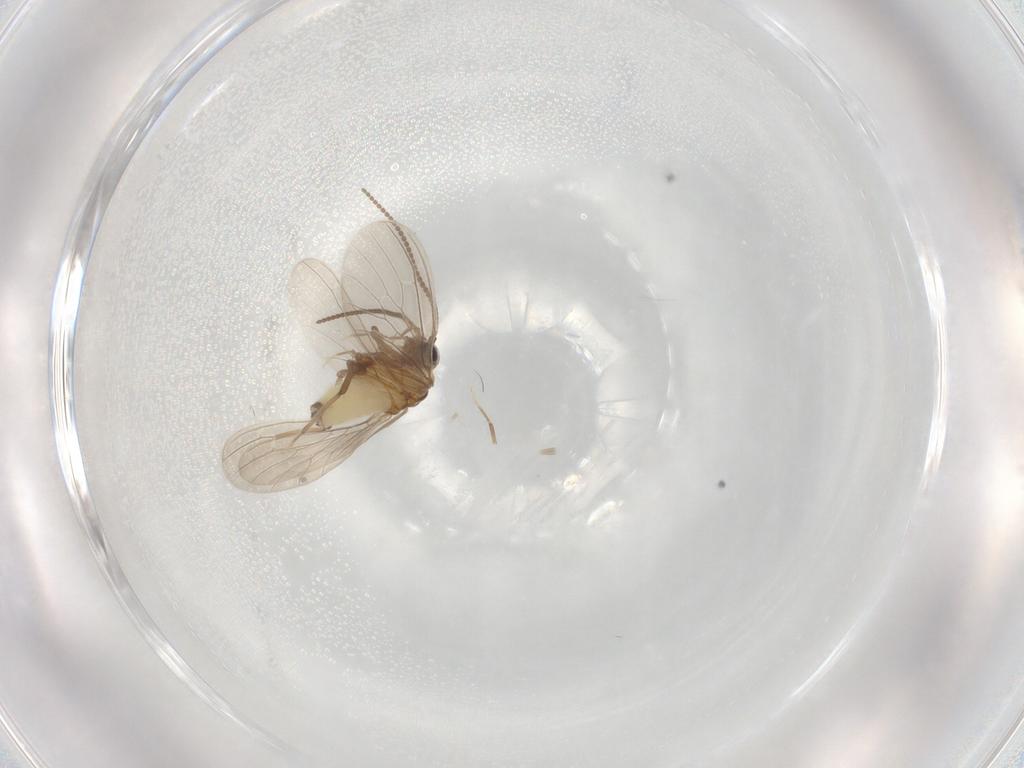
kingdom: Animalia
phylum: Arthropoda
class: Insecta
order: Neuroptera
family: Coniopterygidae
